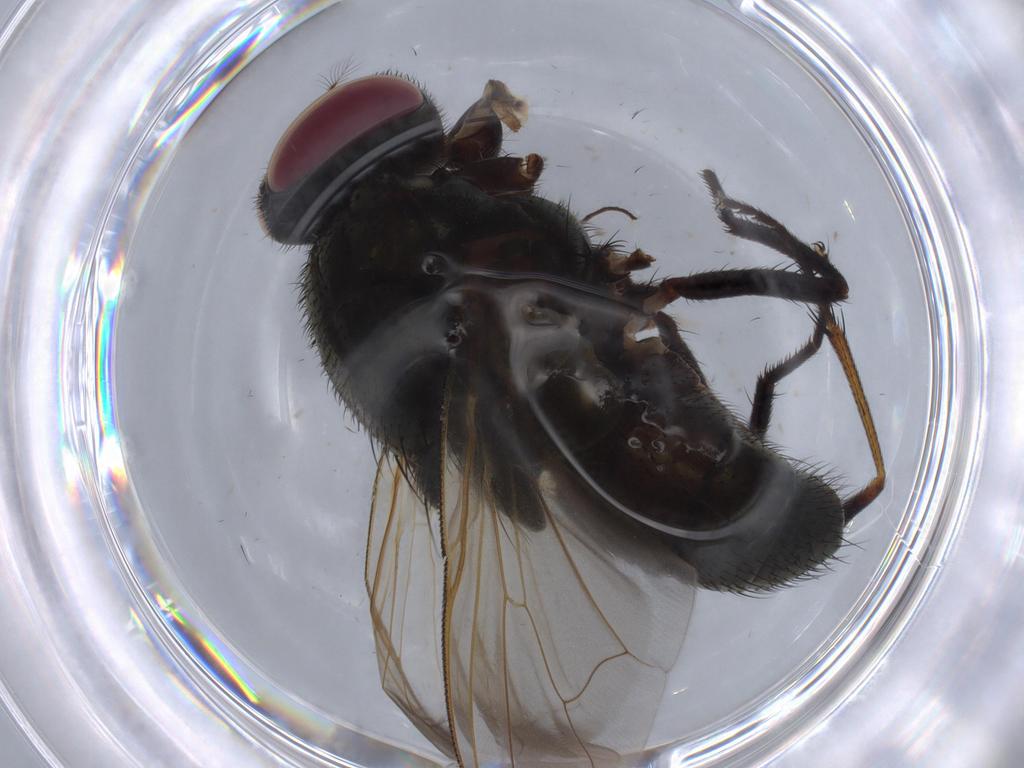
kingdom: Animalia
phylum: Arthropoda
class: Insecta
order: Diptera
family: Dolichopodidae
